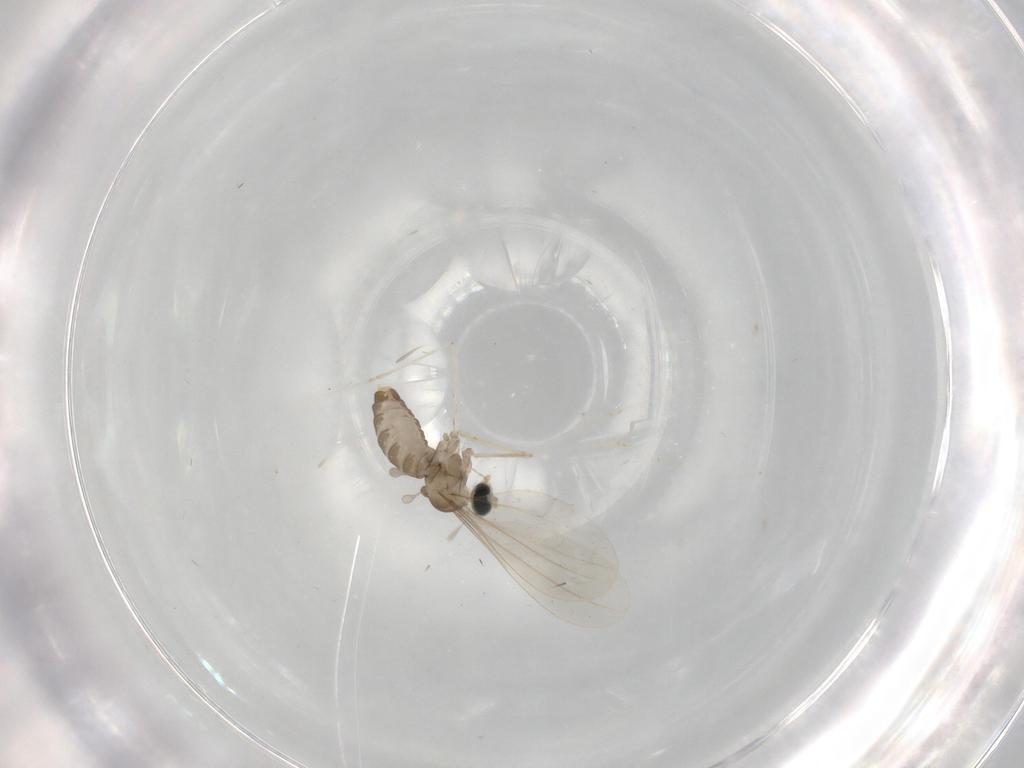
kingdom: Animalia
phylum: Arthropoda
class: Insecta
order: Diptera
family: Cecidomyiidae
